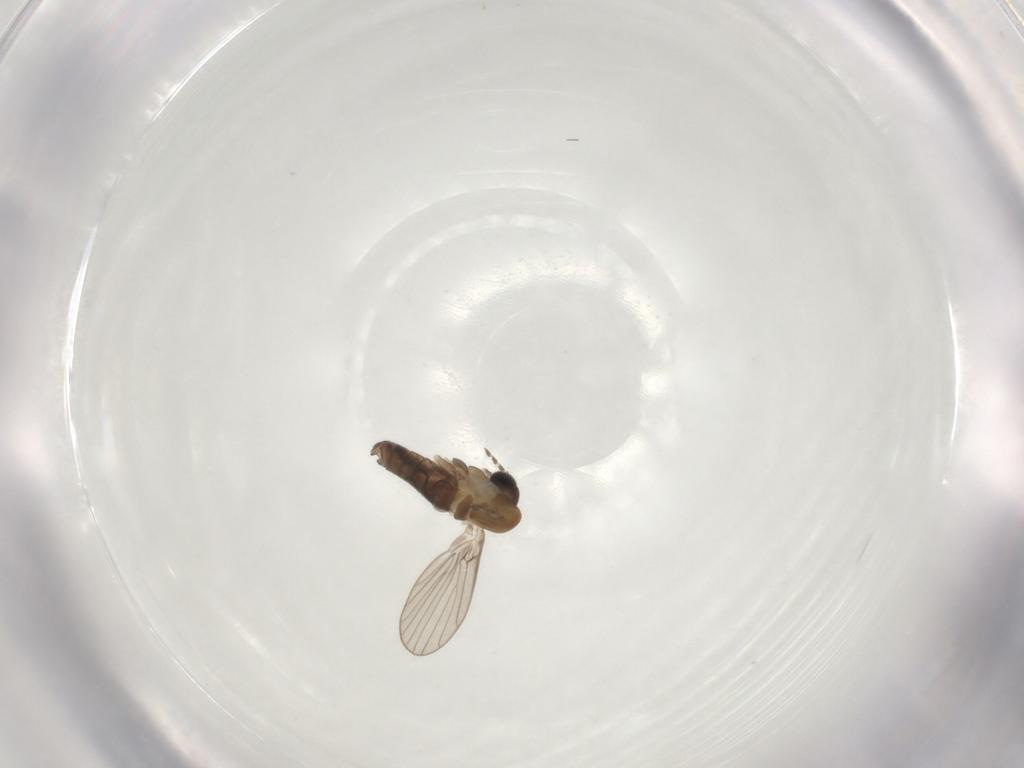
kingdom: Animalia
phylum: Arthropoda
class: Insecta
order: Diptera
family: Psychodidae
